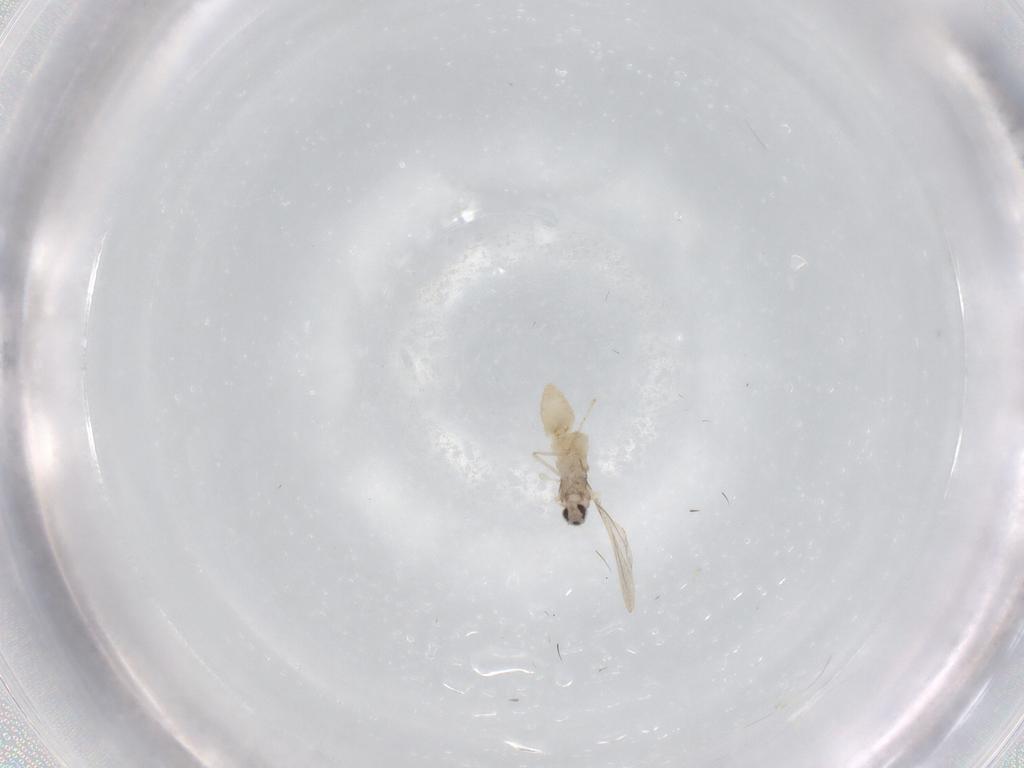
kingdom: Animalia
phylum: Arthropoda
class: Insecta
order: Diptera
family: Cecidomyiidae
